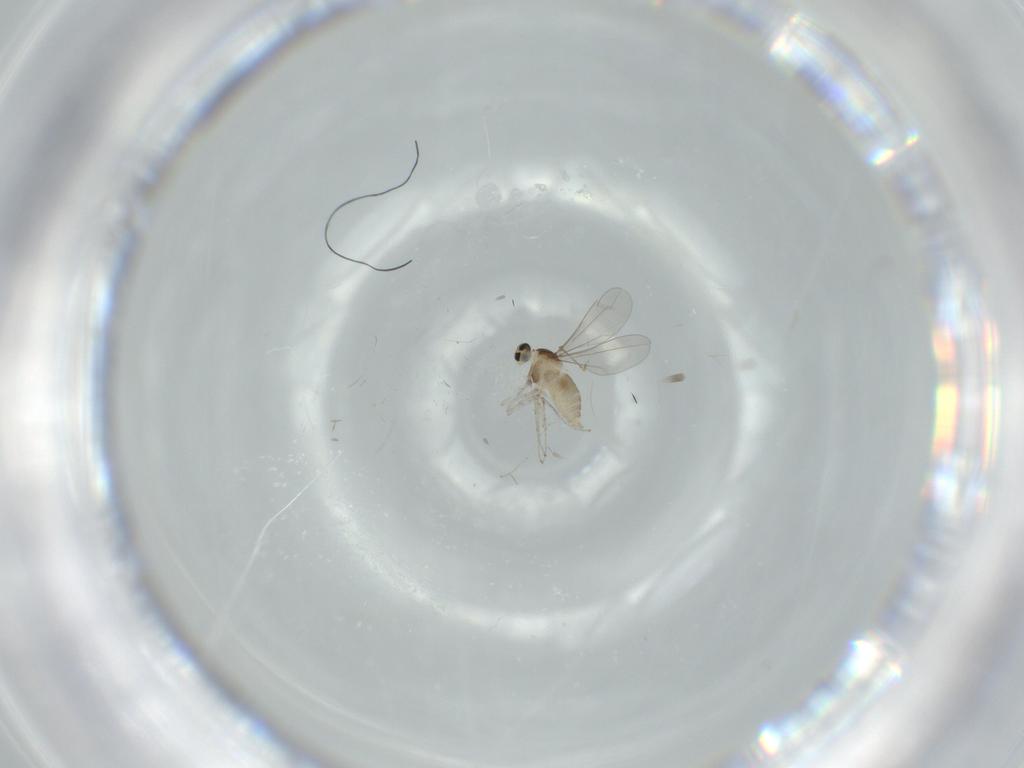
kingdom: Animalia
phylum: Arthropoda
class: Insecta
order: Diptera
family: Cecidomyiidae
